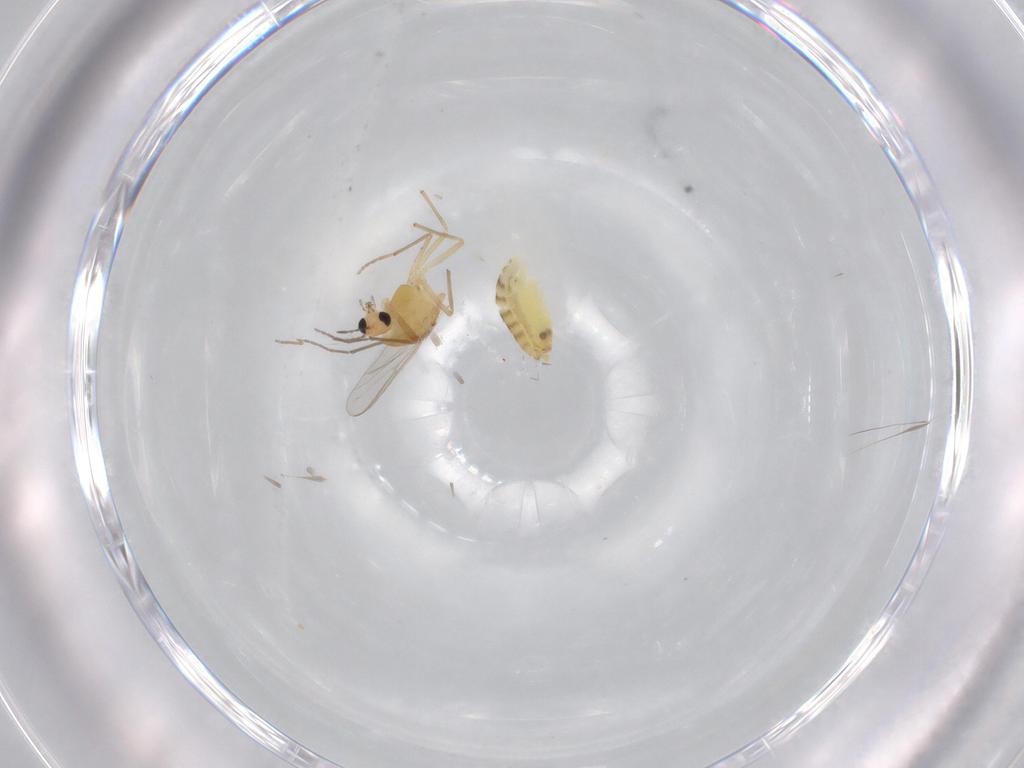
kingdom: Animalia
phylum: Arthropoda
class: Insecta
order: Diptera
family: Chironomidae
